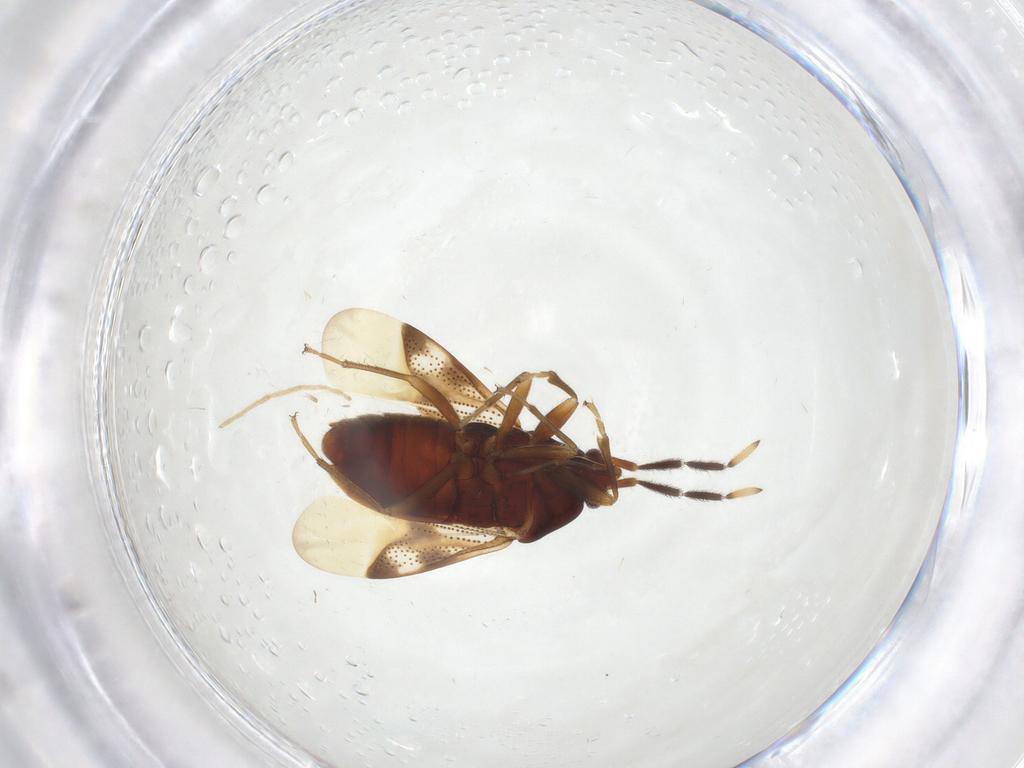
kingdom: Animalia
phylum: Arthropoda
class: Insecta
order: Hemiptera
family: Rhyparochromidae
